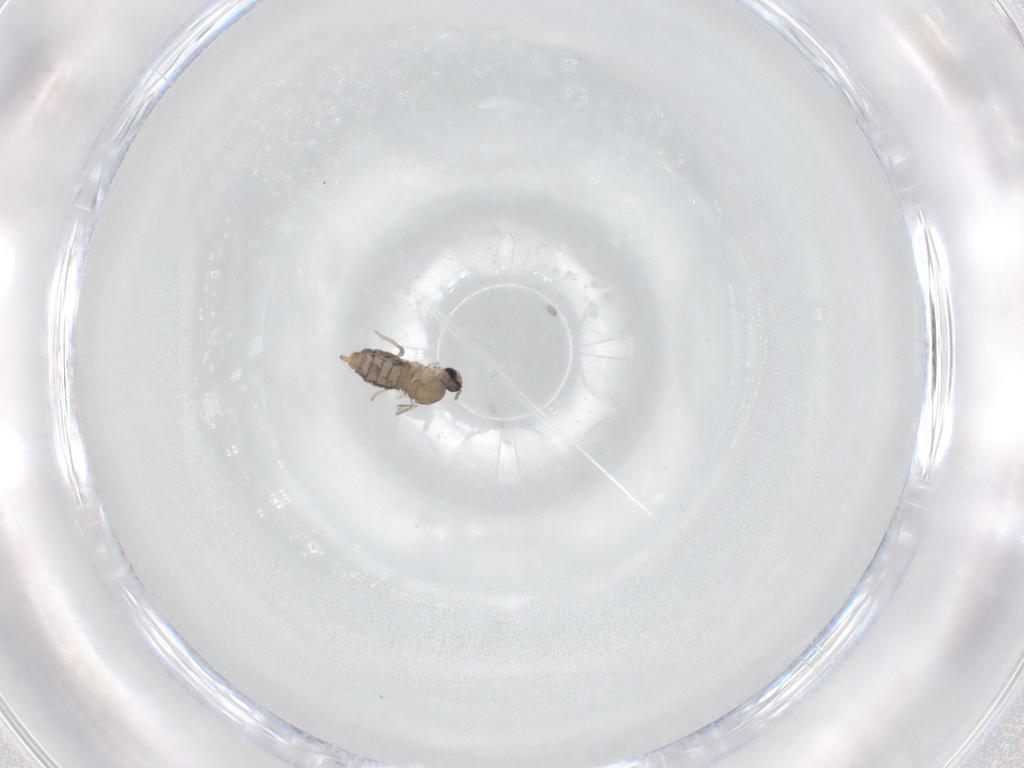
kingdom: Animalia
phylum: Arthropoda
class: Insecta
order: Diptera
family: Cecidomyiidae
